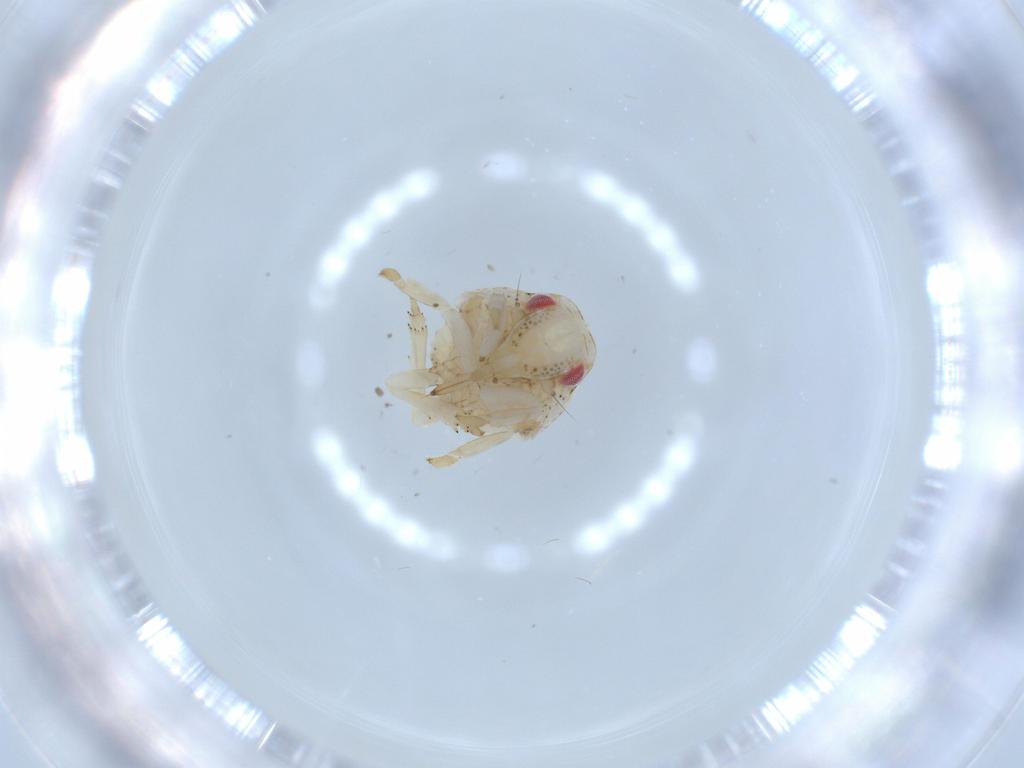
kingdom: Animalia
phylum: Arthropoda
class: Insecta
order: Hemiptera
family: Acanaloniidae
